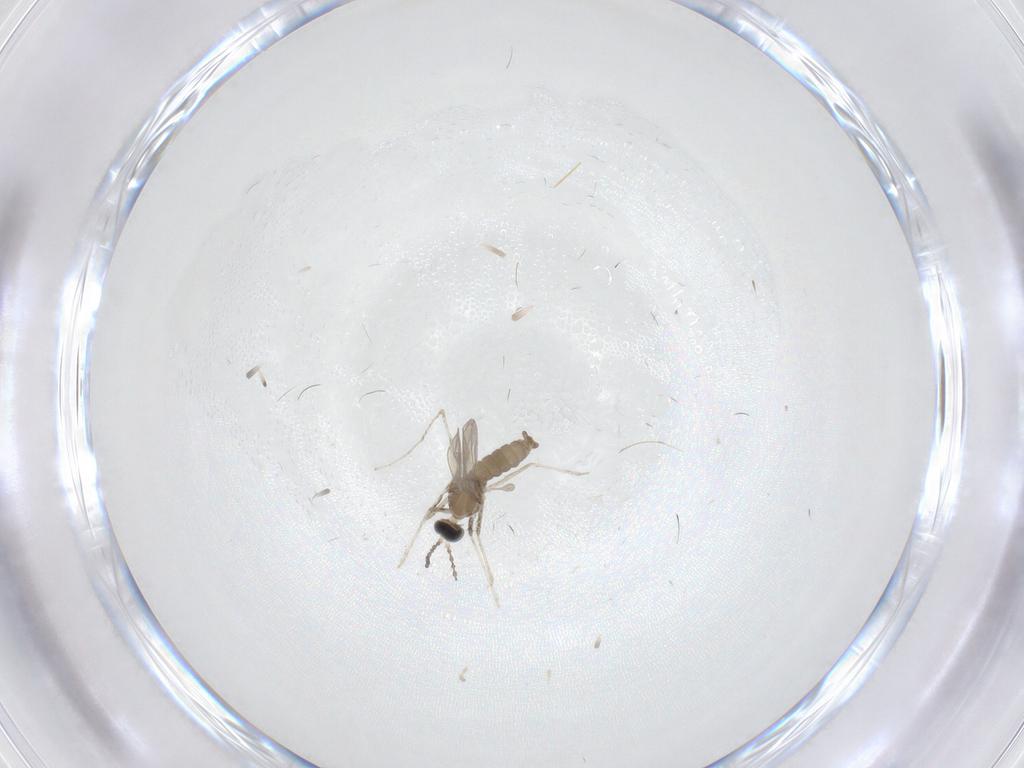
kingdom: Animalia
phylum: Arthropoda
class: Insecta
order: Diptera
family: Cecidomyiidae
